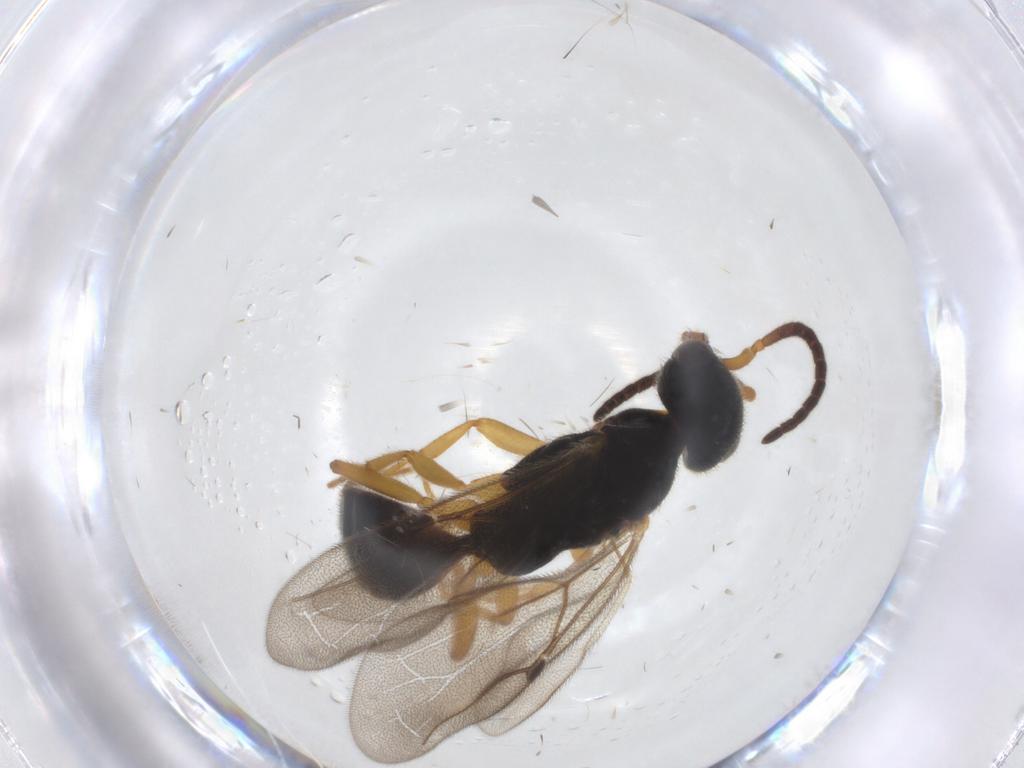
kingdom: Animalia
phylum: Arthropoda
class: Insecta
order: Hymenoptera
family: Bethylidae
